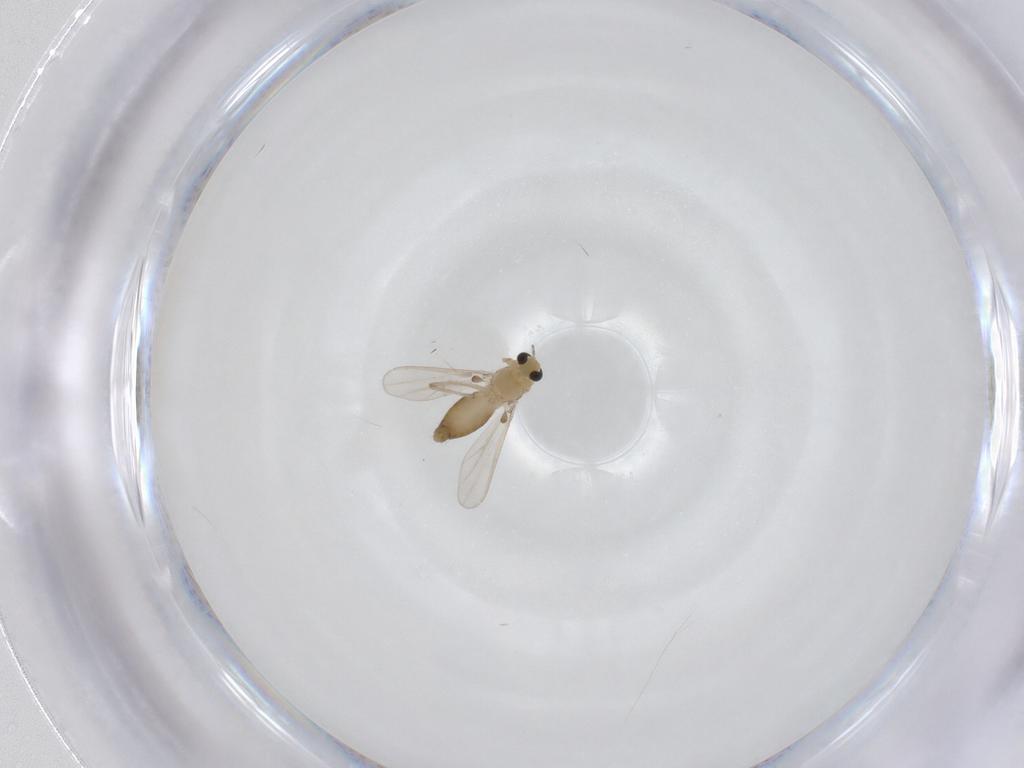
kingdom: Animalia
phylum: Arthropoda
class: Insecta
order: Diptera
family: Chironomidae
